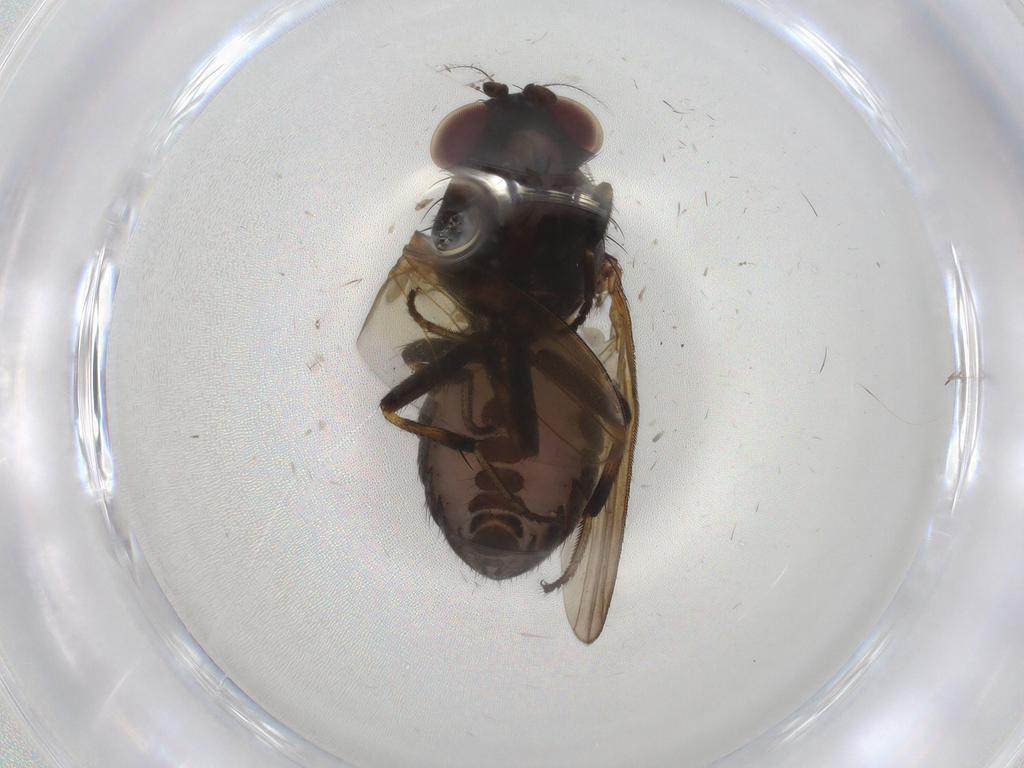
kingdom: Animalia
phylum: Arthropoda
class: Insecta
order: Diptera
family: Lauxaniidae
